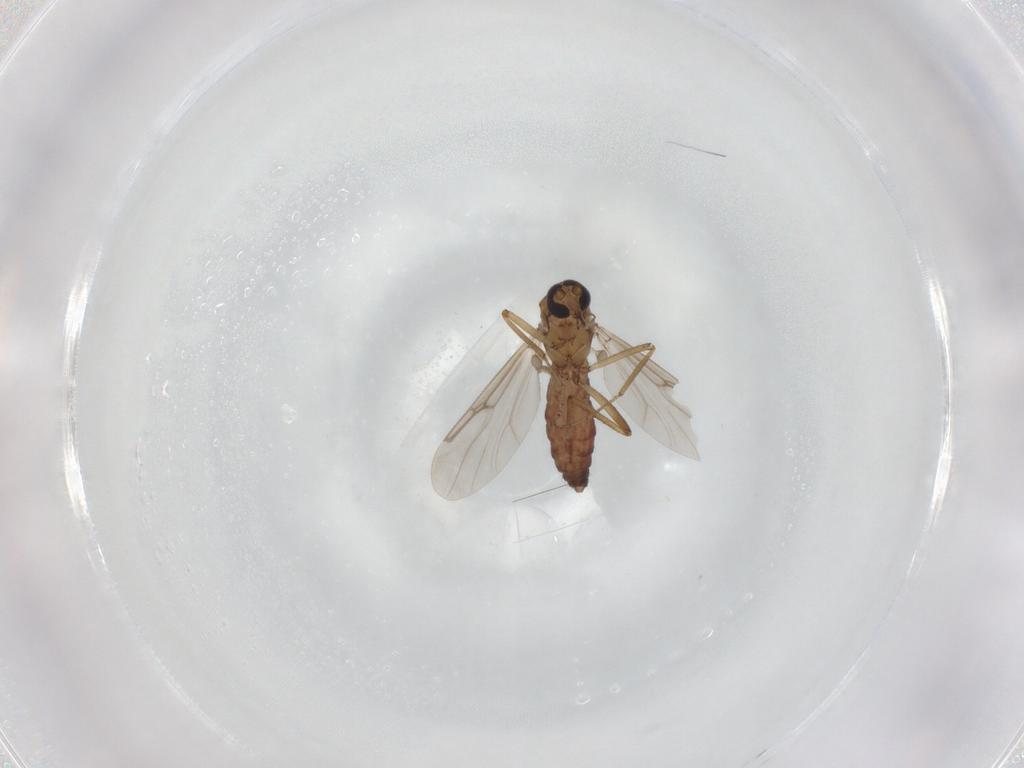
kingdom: Animalia
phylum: Arthropoda
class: Insecta
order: Diptera
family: Ceratopogonidae
